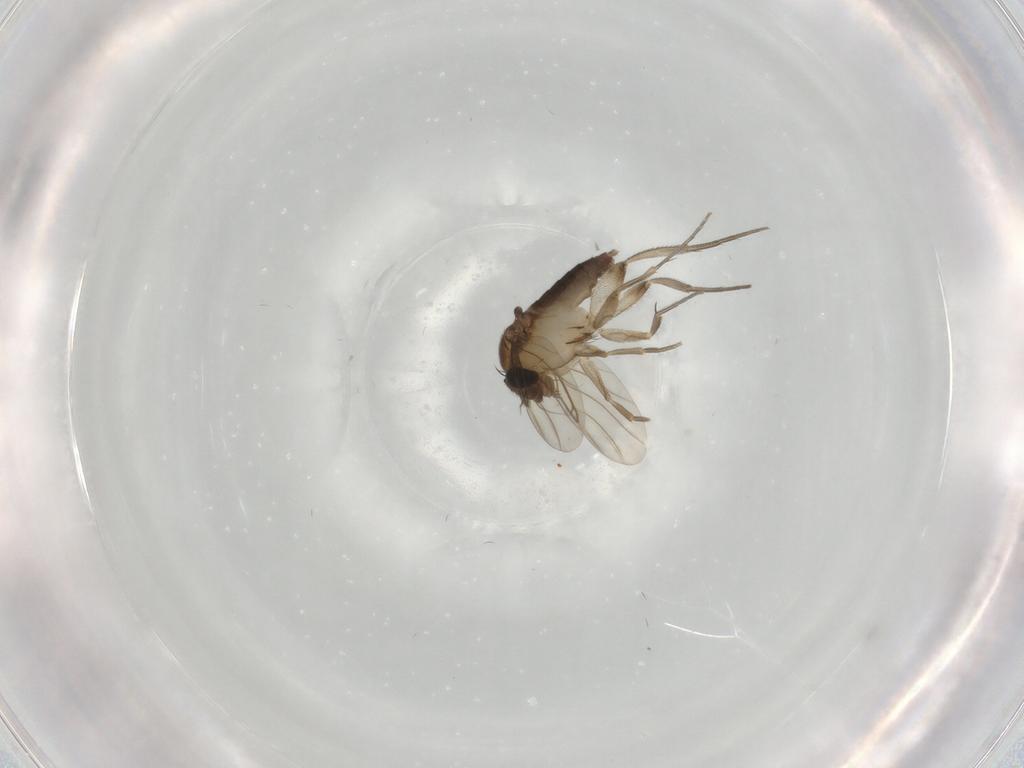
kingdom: Animalia
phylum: Arthropoda
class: Insecta
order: Diptera
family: Phoridae
